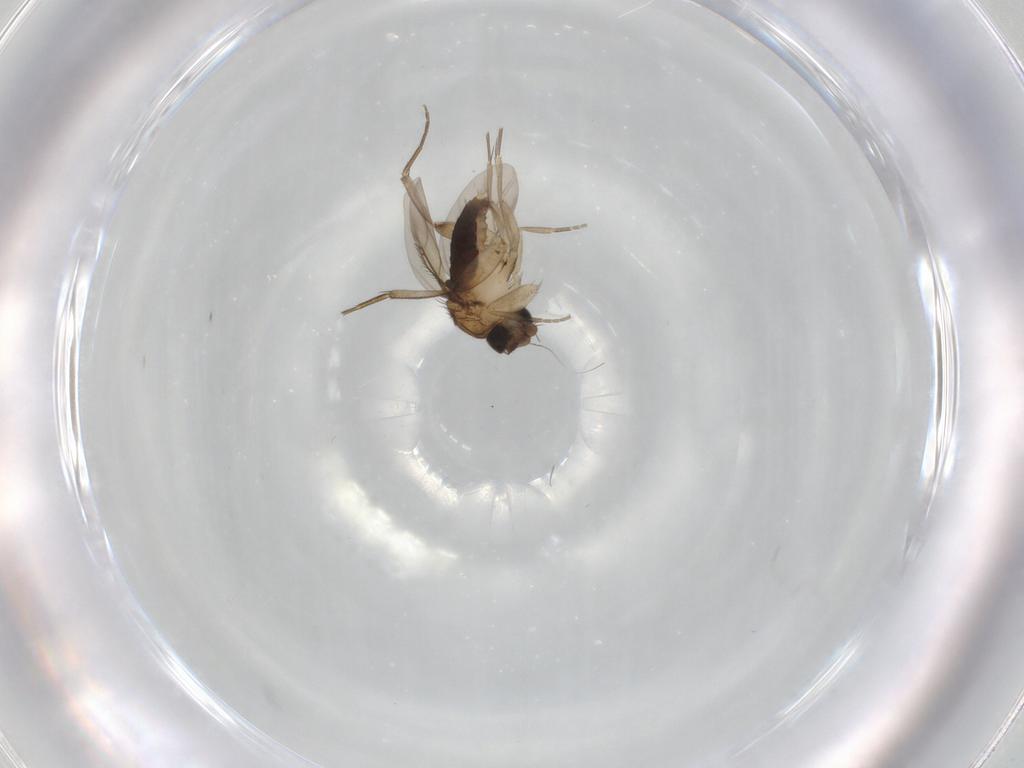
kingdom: Animalia
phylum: Arthropoda
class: Insecta
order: Diptera
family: Phoridae
